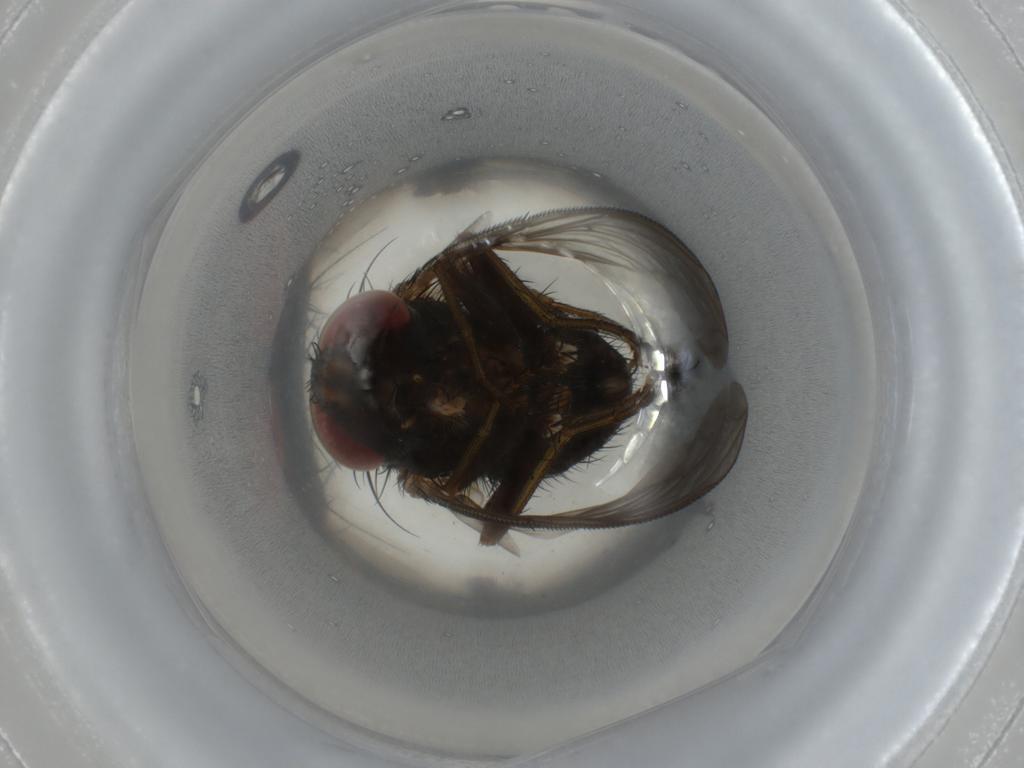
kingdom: Animalia
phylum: Arthropoda
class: Insecta
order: Diptera
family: Tachinidae
